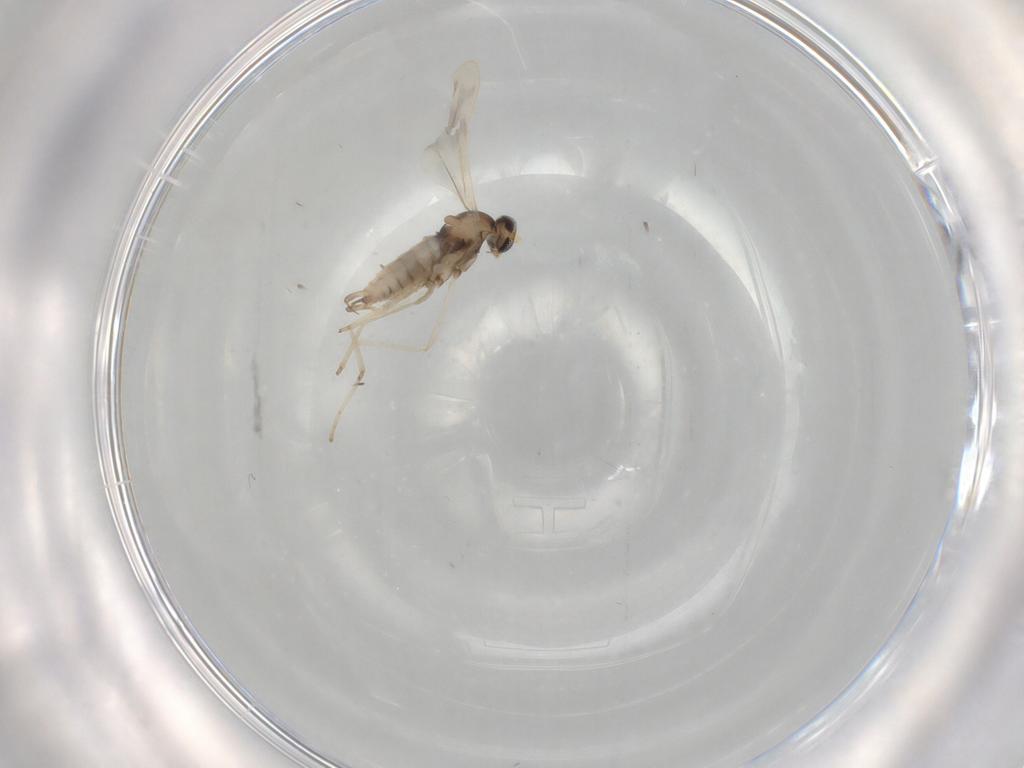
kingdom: Animalia
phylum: Arthropoda
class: Insecta
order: Diptera
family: Cecidomyiidae
